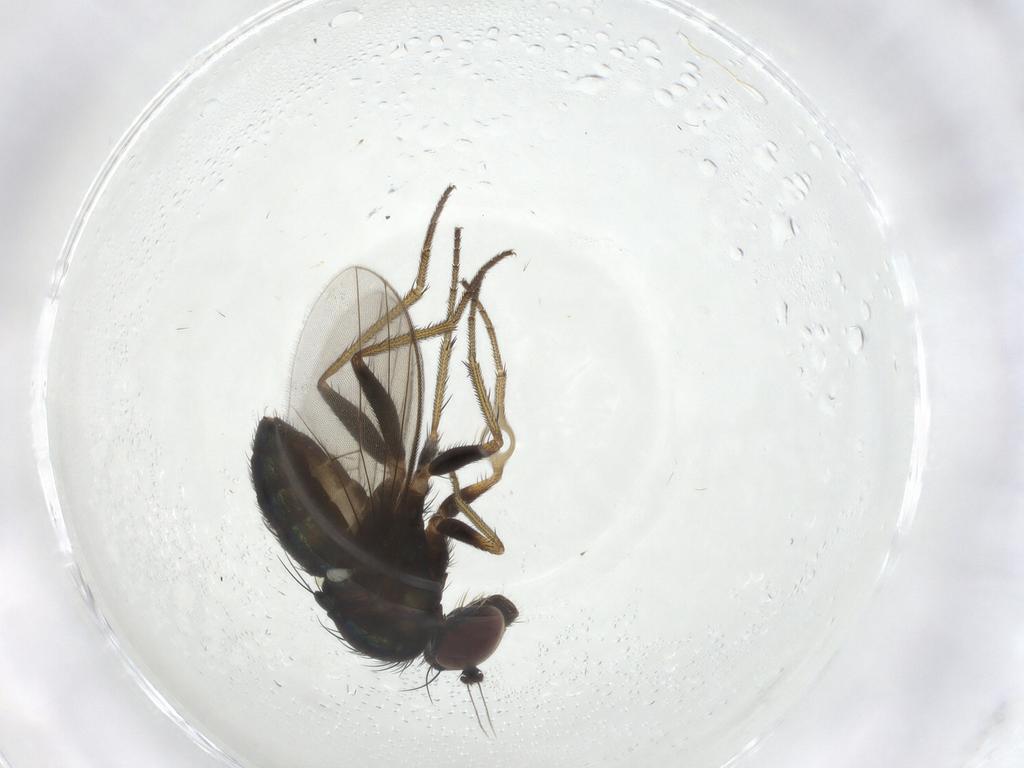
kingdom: Animalia
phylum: Arthropoda
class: Insecta
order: Diptera
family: Dolichopodidae
